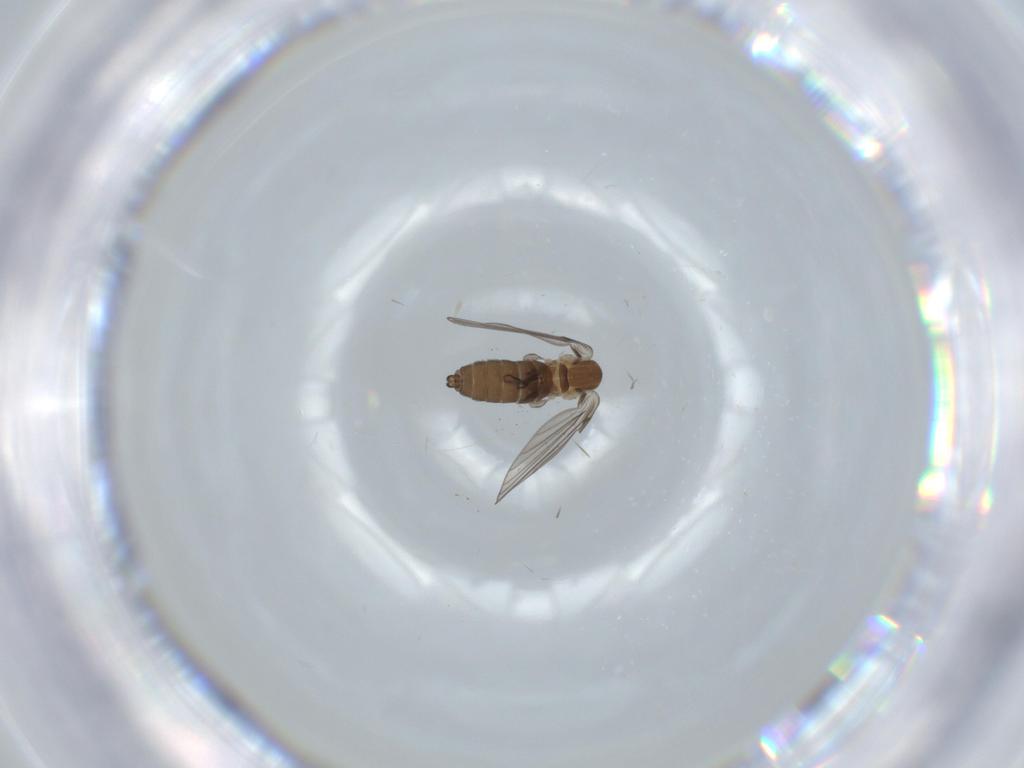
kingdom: Animalia
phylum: Arthropoda
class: Insecta
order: Diptera
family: Psychodidae
